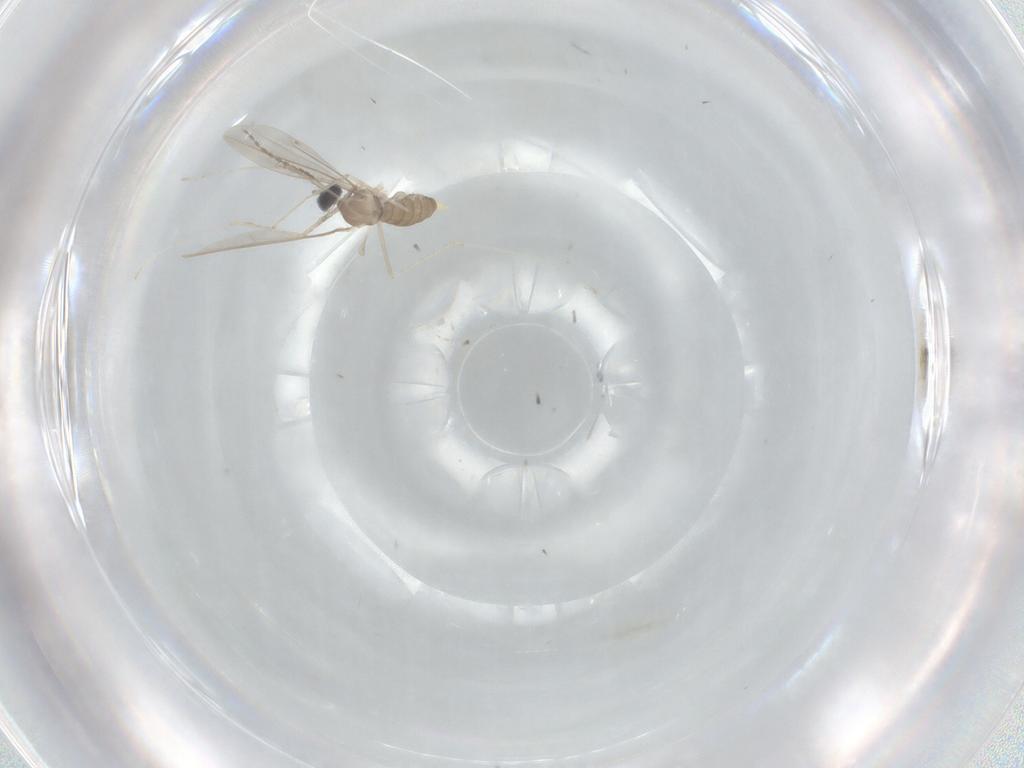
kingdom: Animalia
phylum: Arthropoda
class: Insecta
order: Diptera
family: Cecidomyiidae
